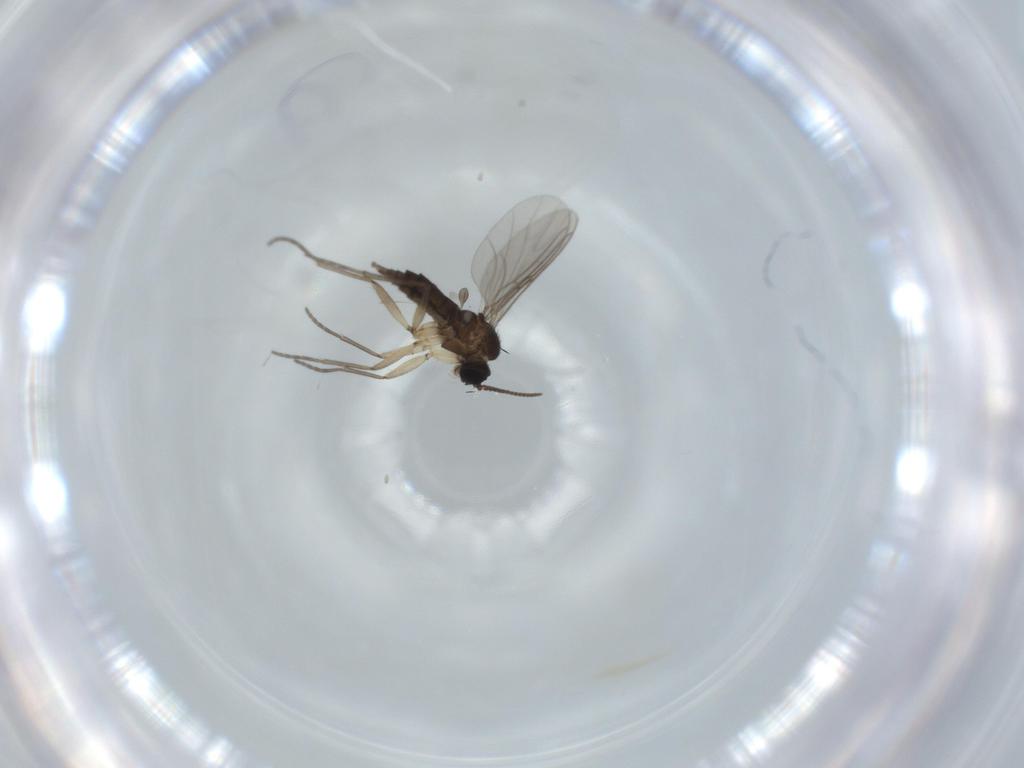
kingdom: Animalia
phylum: Arthropoda
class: Insecta
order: Diptera
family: Sciaridae
